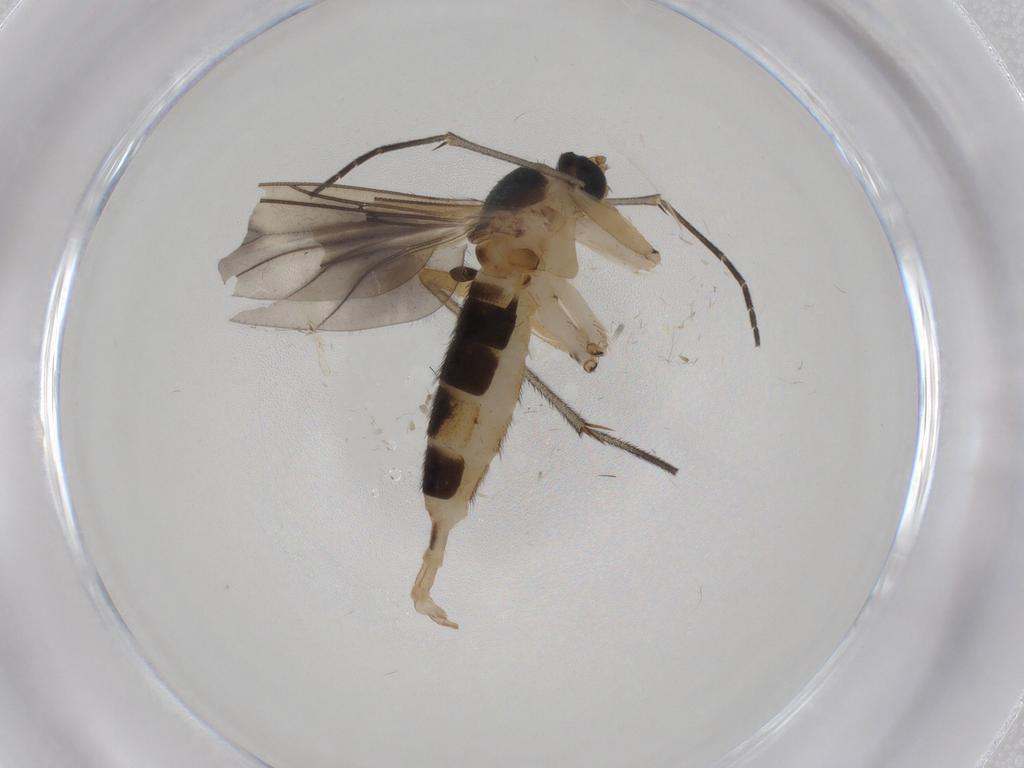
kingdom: Animalia
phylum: Arthropoda
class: Insecta
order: Diptera
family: Sciaridae
